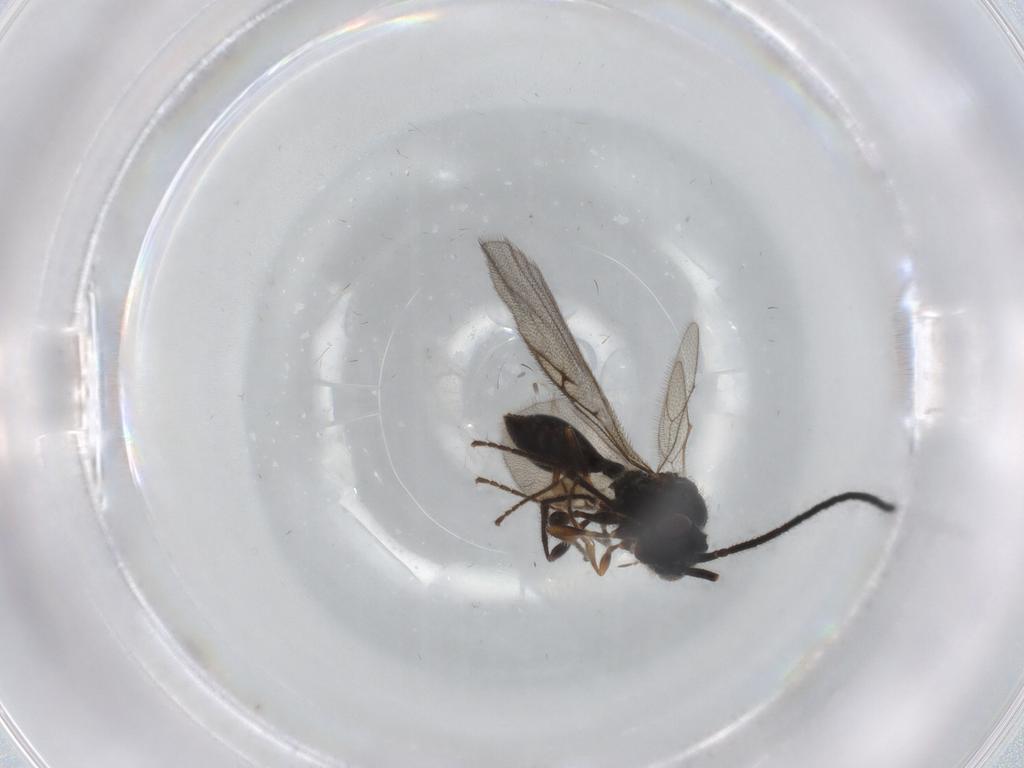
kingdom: Animalia
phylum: Arthropoda
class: Insecta
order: Hymenoptera
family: Diapriidae
